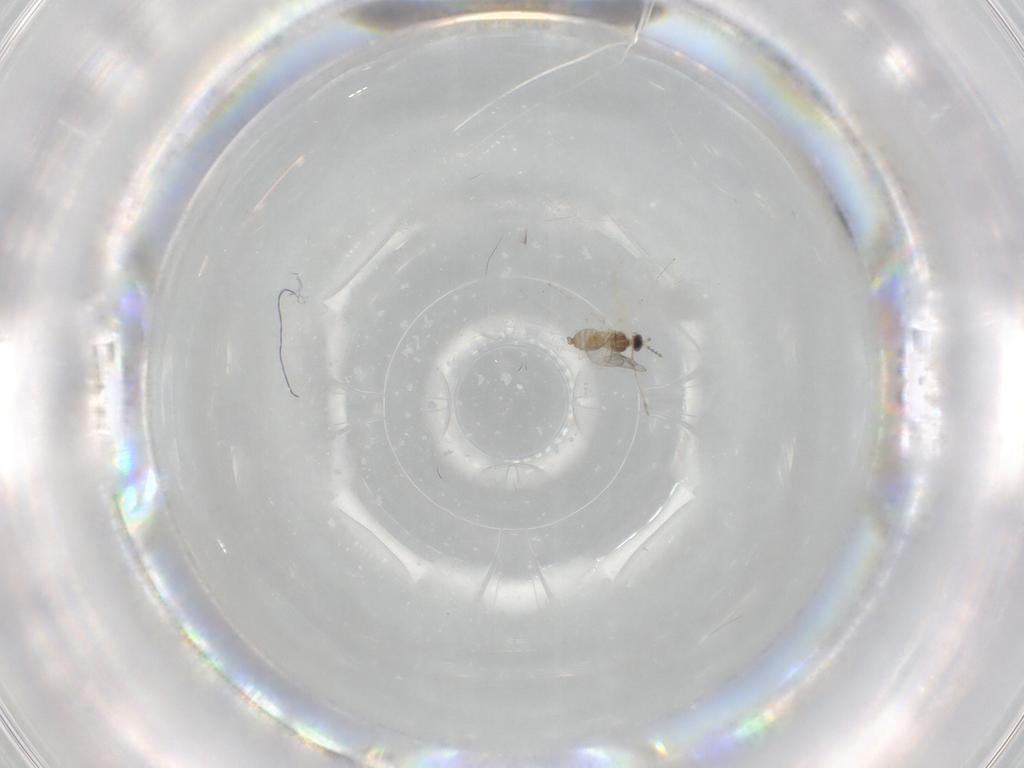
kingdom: Animalia
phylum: Arthropoda
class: Insecta
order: Diptera
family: Cecidomyiidae
